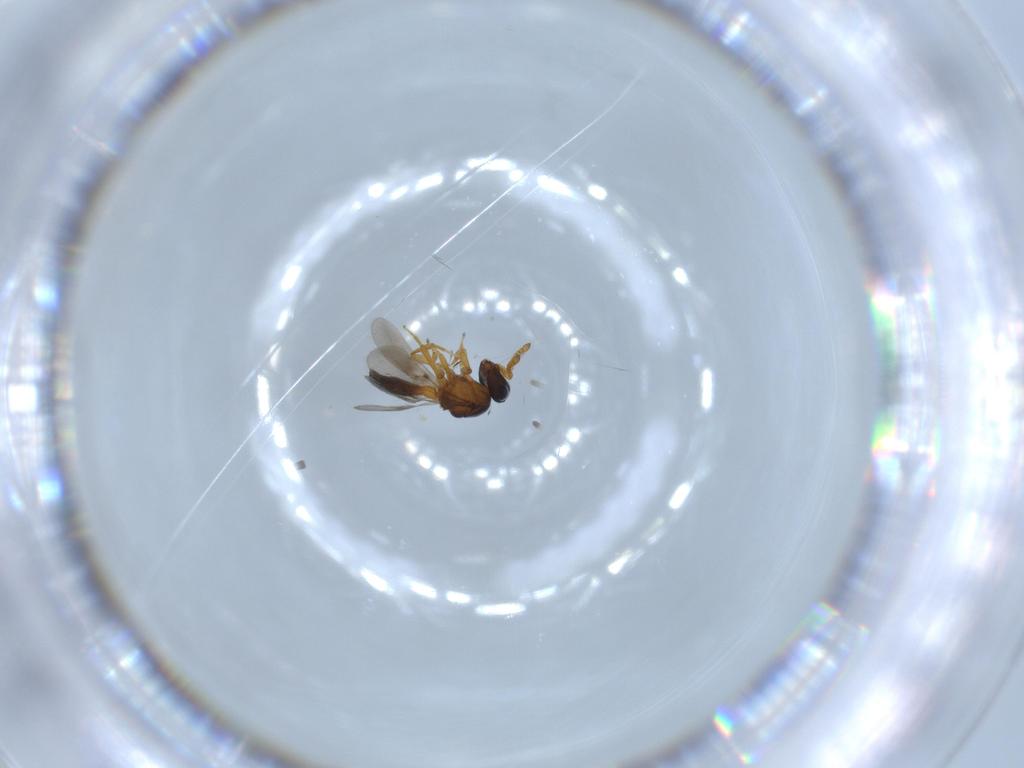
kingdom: Animalia
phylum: Arthropoda
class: Insecta
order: Hymenoptera
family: Scelionidae
